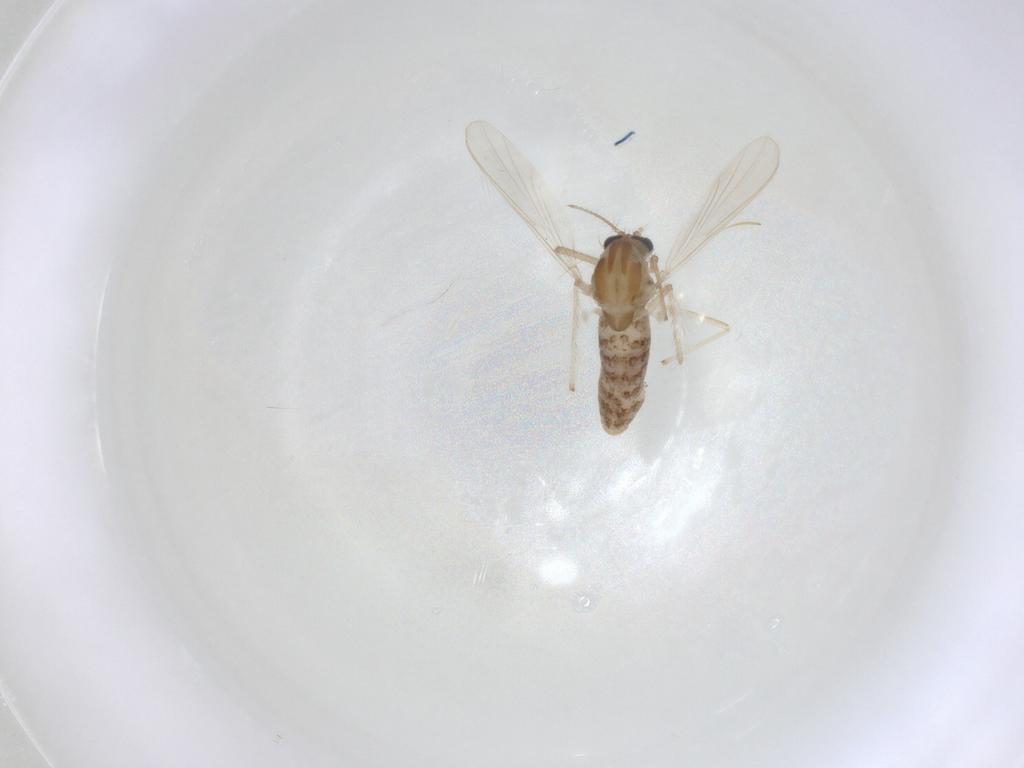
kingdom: Animalia
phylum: Arthropoda
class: Insecta
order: Diptera
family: Chironomidae
